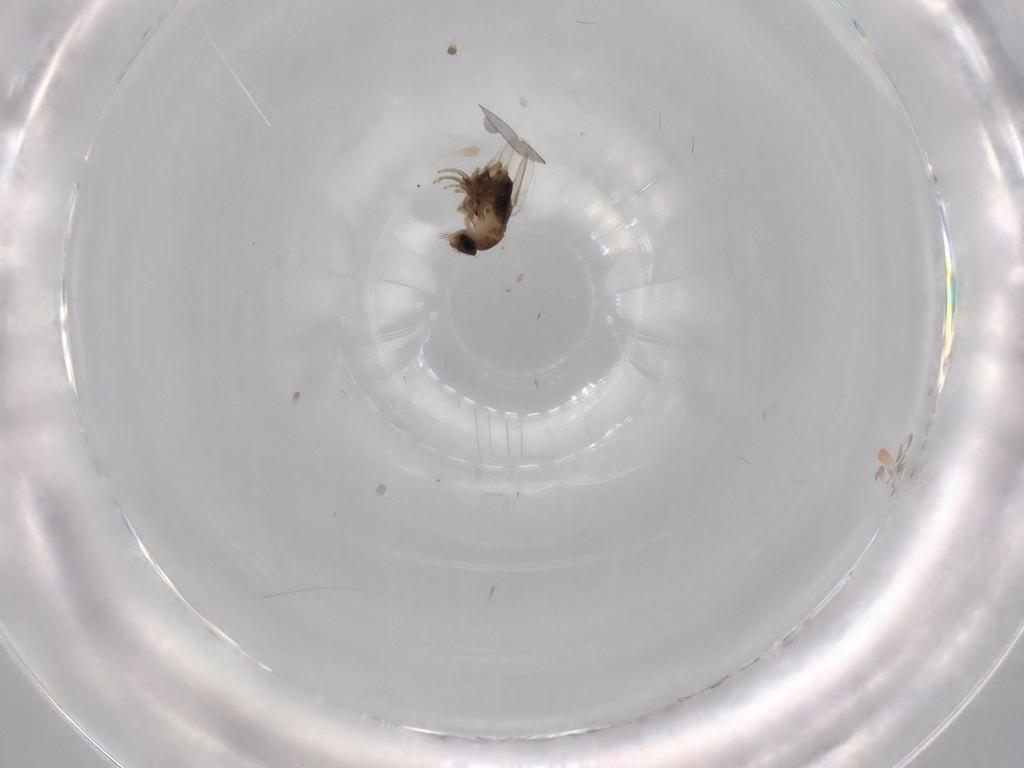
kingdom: Animalia
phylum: Arthropoda
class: Insecta
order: Diptera
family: Phoridae
